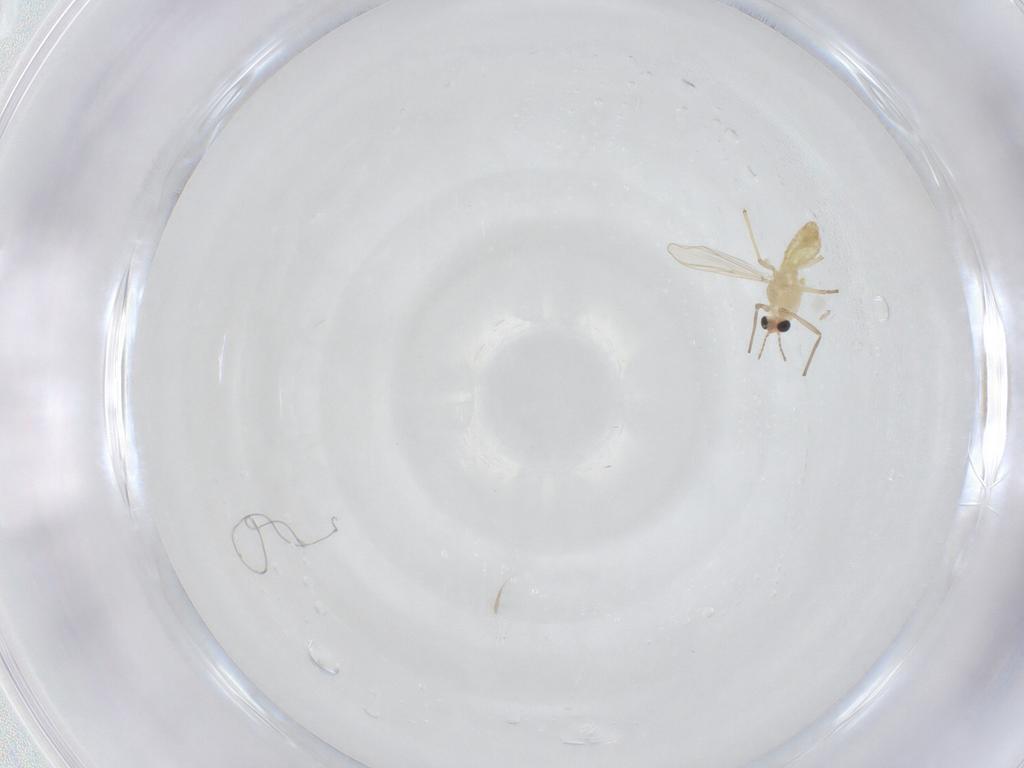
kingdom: Animalia
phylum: Arthropoda
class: Insecta
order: Diptera
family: Chironomidae
